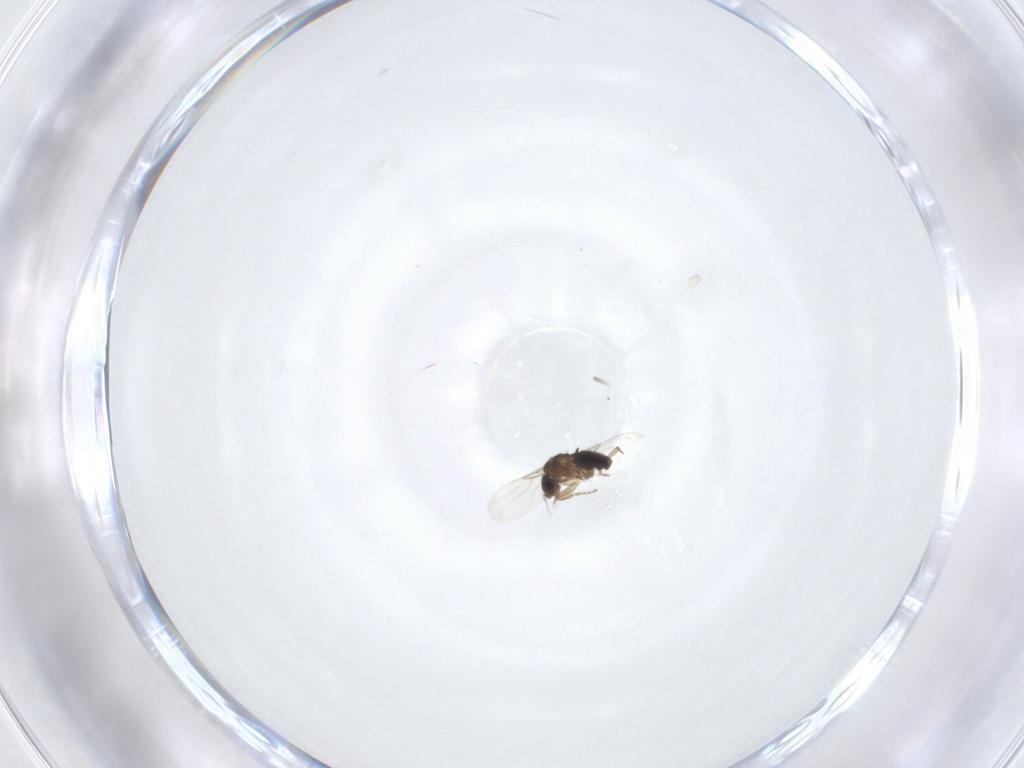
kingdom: Animalia
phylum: Arthropoda
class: Insecta
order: Diptera
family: Phoridae
